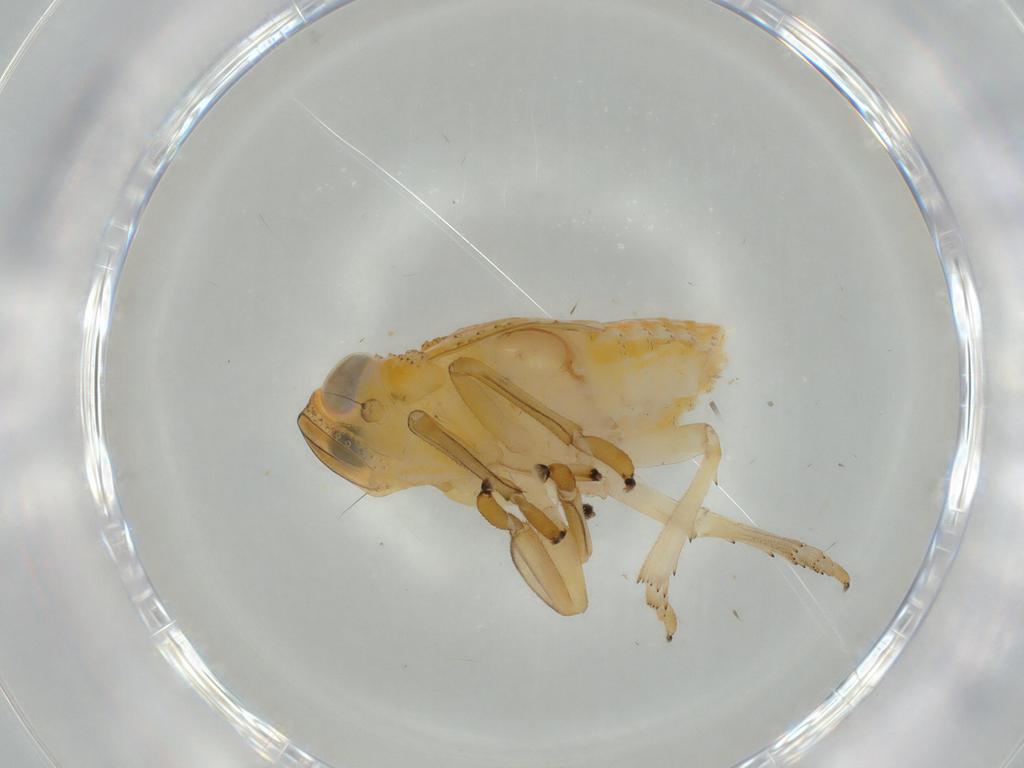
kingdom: Animalia
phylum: Arthropoda
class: Insecta
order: Hemiptera
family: Issidae
